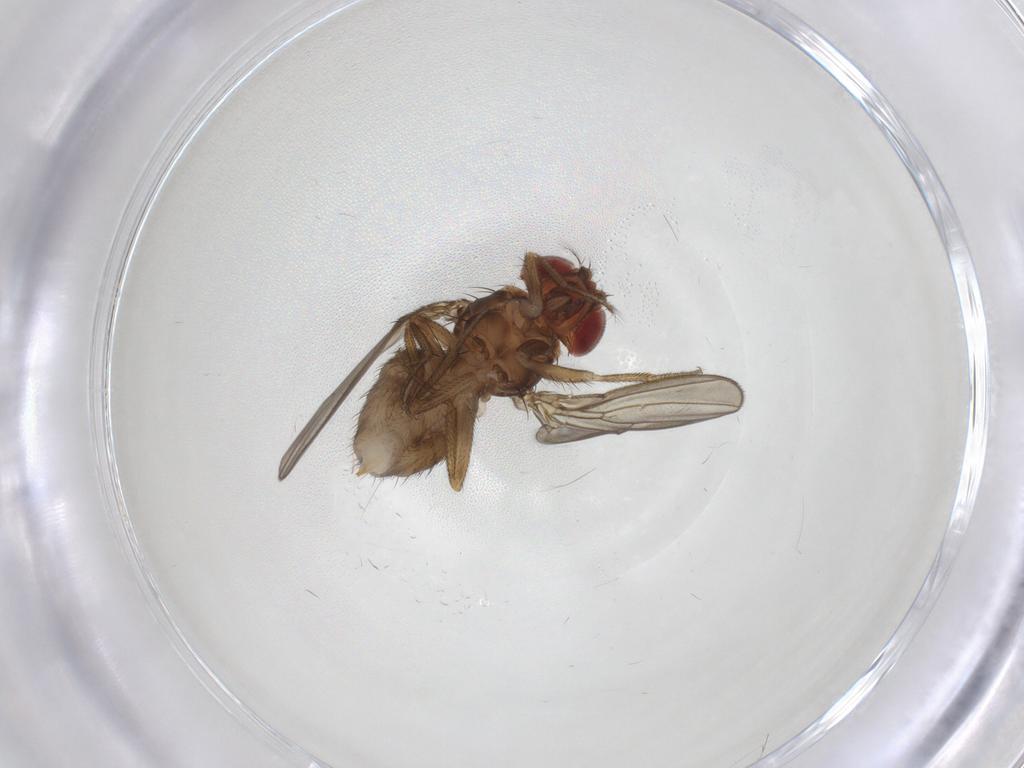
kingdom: Animalia
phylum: Arthropoda
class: Insecta
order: Diptera
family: Drosophilidae
